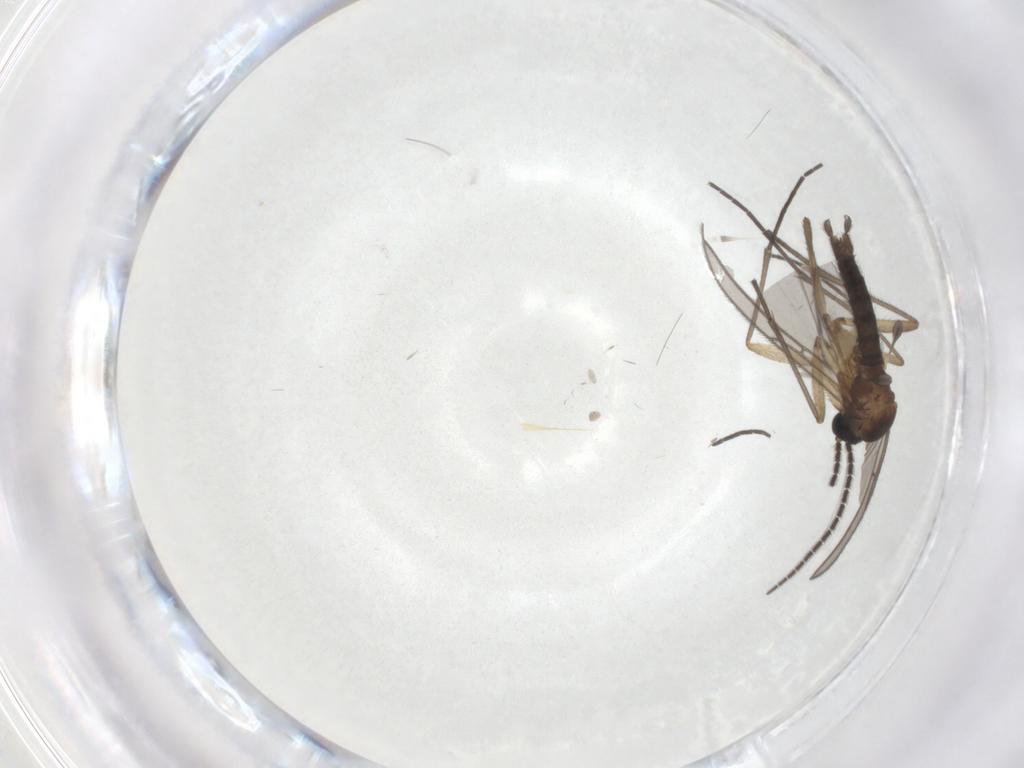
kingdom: Animalia
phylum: Arthropoda
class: Insecta
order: Diptera
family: Sciaridae
